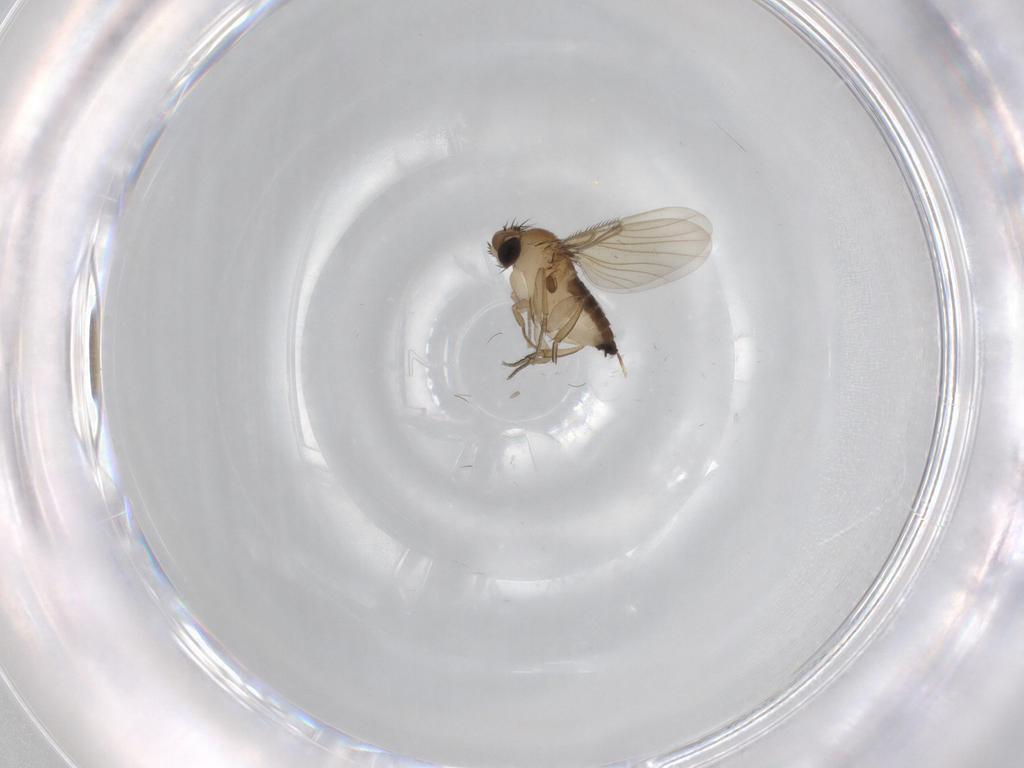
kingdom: Animalia
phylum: Arthropoda
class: Insecta
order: Diptera
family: Phoridae
